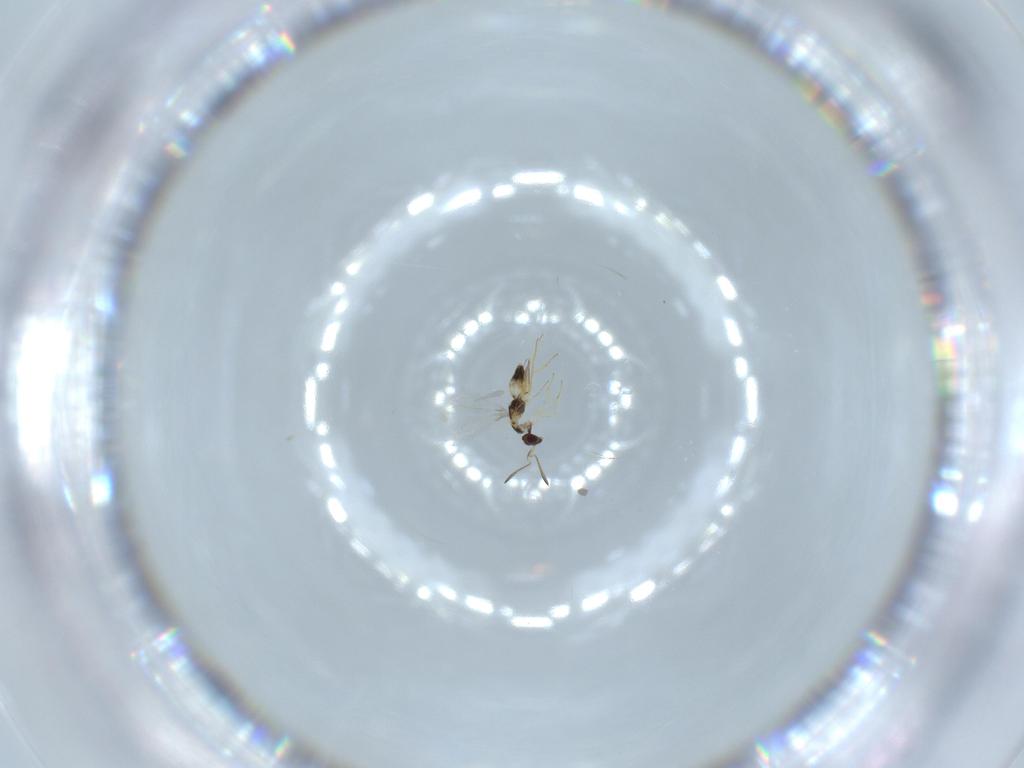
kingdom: Animalia
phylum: Arthropoda
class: Insecta
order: Hymenoptera
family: Mymaridae
